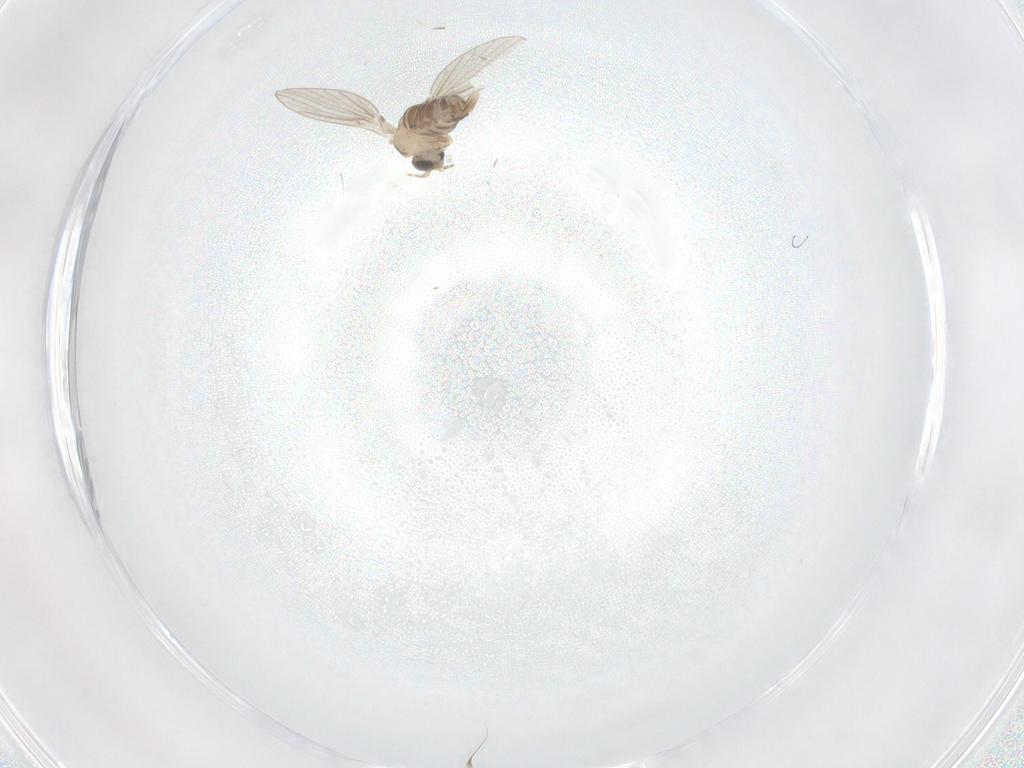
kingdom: Animalia
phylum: Arthropoda
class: Insecta
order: Diptera
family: Psychodidae
